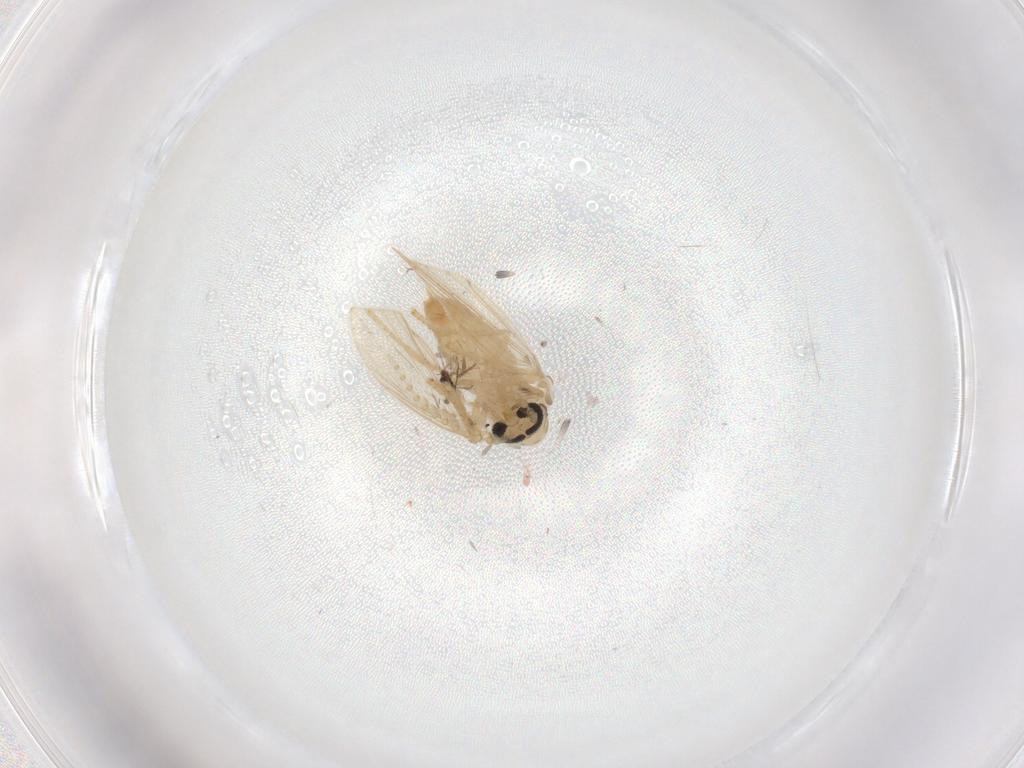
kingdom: Animalia
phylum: Arthropoda
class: Insecta
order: Diptera
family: Psychodidae
